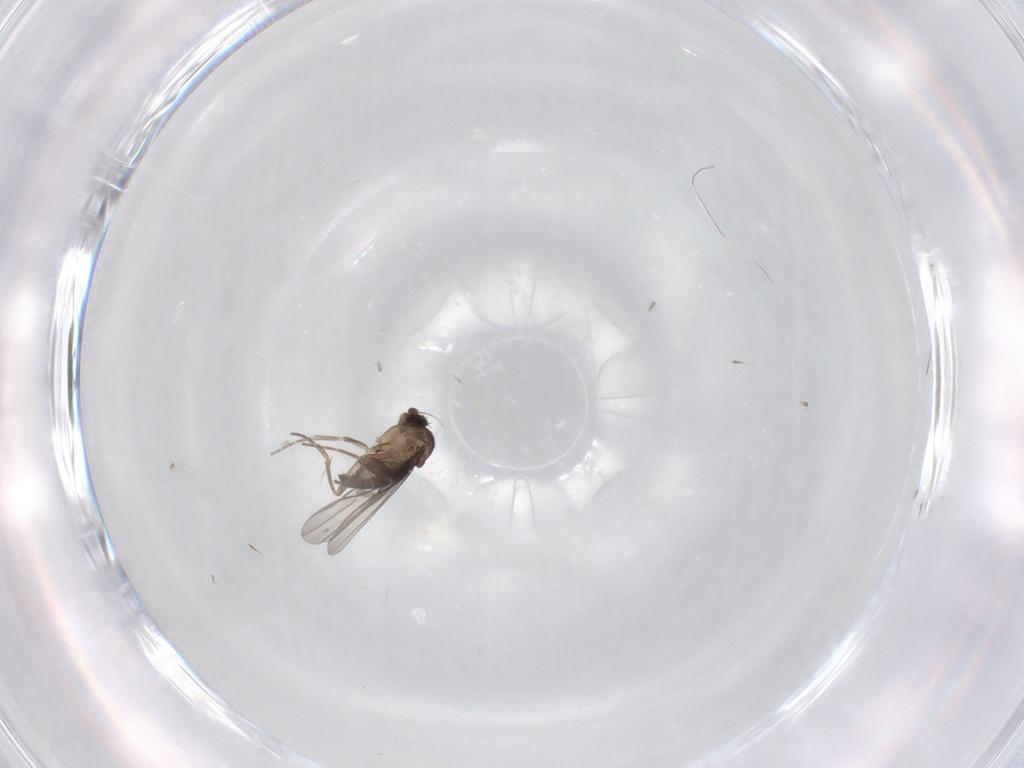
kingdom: Animalia
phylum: Arthropoda
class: Insecta
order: Diptera
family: Phoridae
